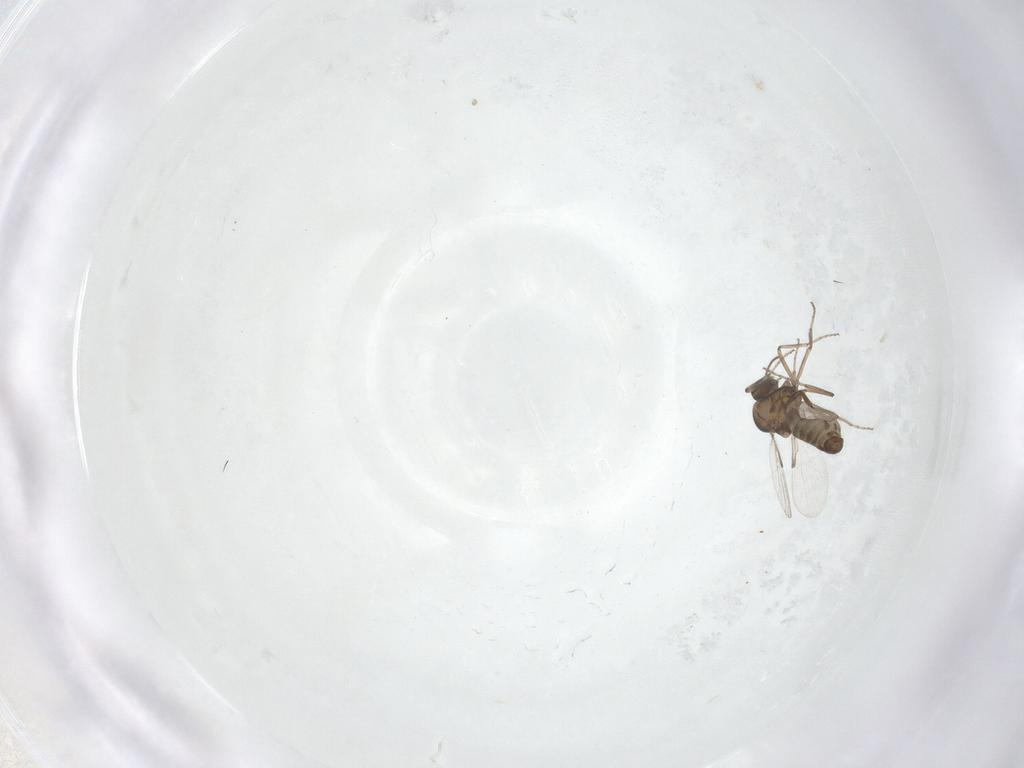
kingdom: Animalia
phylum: Arthropoda
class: Insecta
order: Diptera
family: Ceratopogonidae
